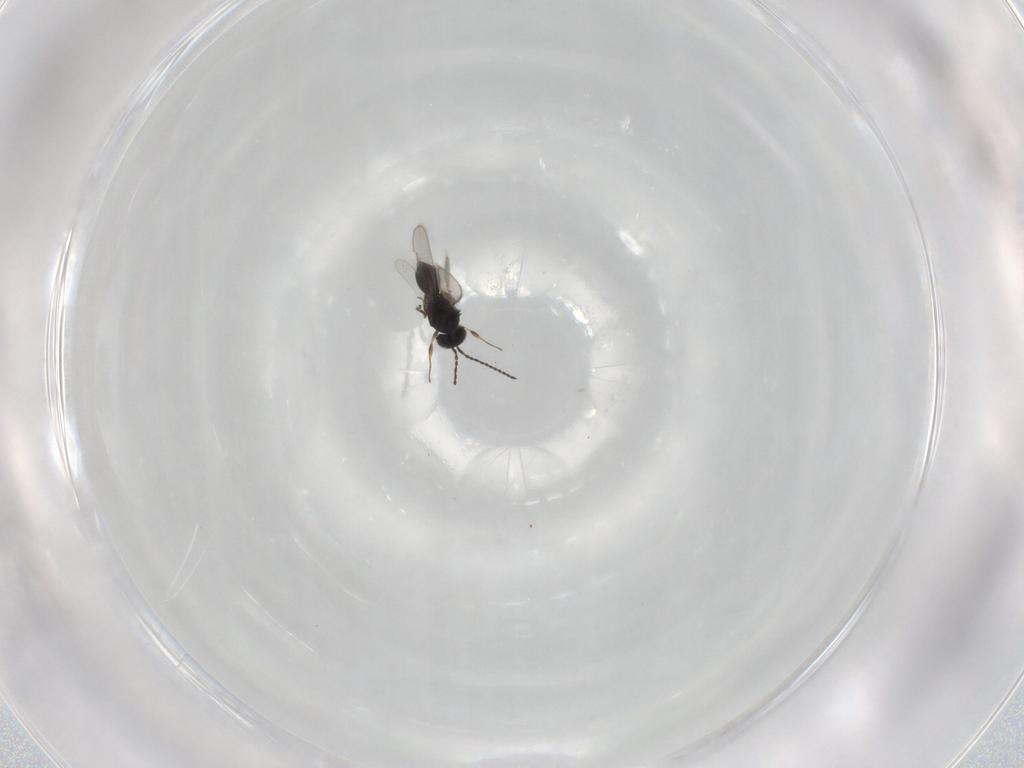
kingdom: Animalia
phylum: Arthropoda
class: Insecta
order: Hymenoptera
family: Scelionidae
